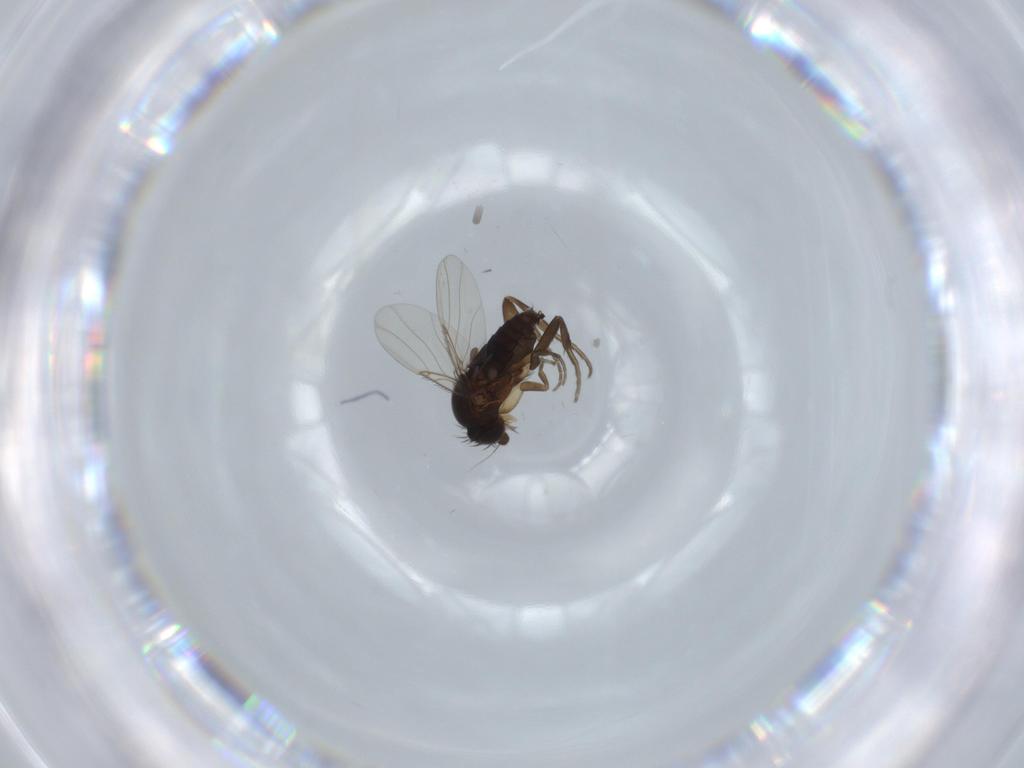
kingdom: Animalia
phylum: Arthropoda
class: Insecta
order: Diptera
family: Phoridae
